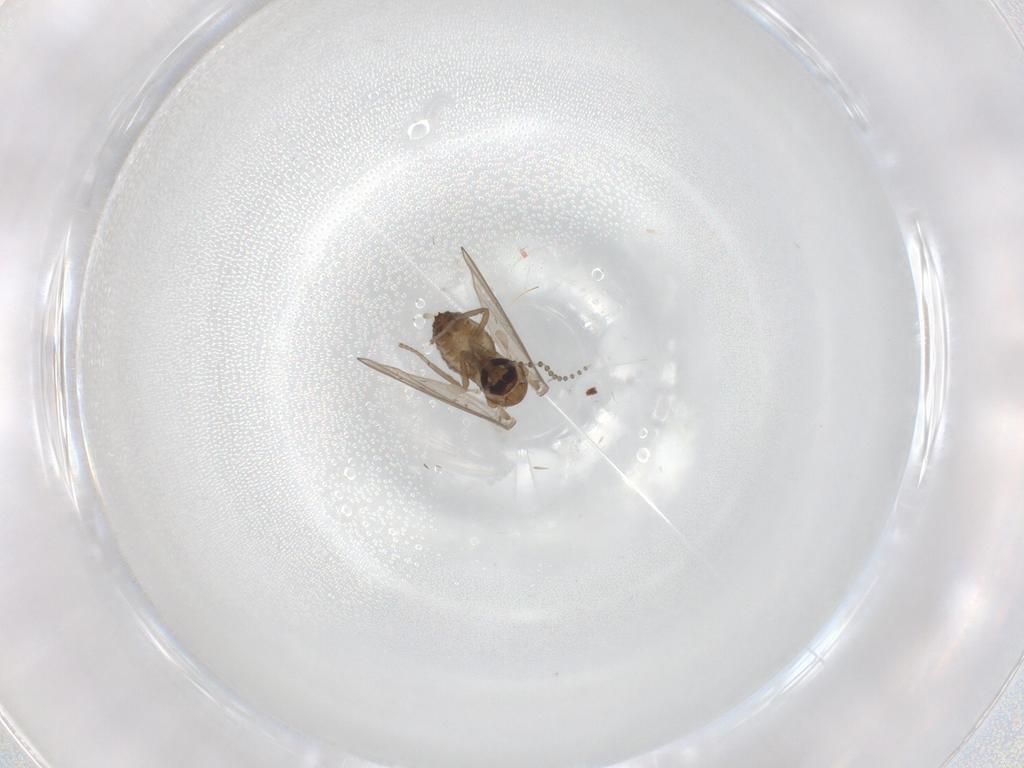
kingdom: Animalia
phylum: Arthropoda
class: Insecta
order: Diptera
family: Psychodidae
